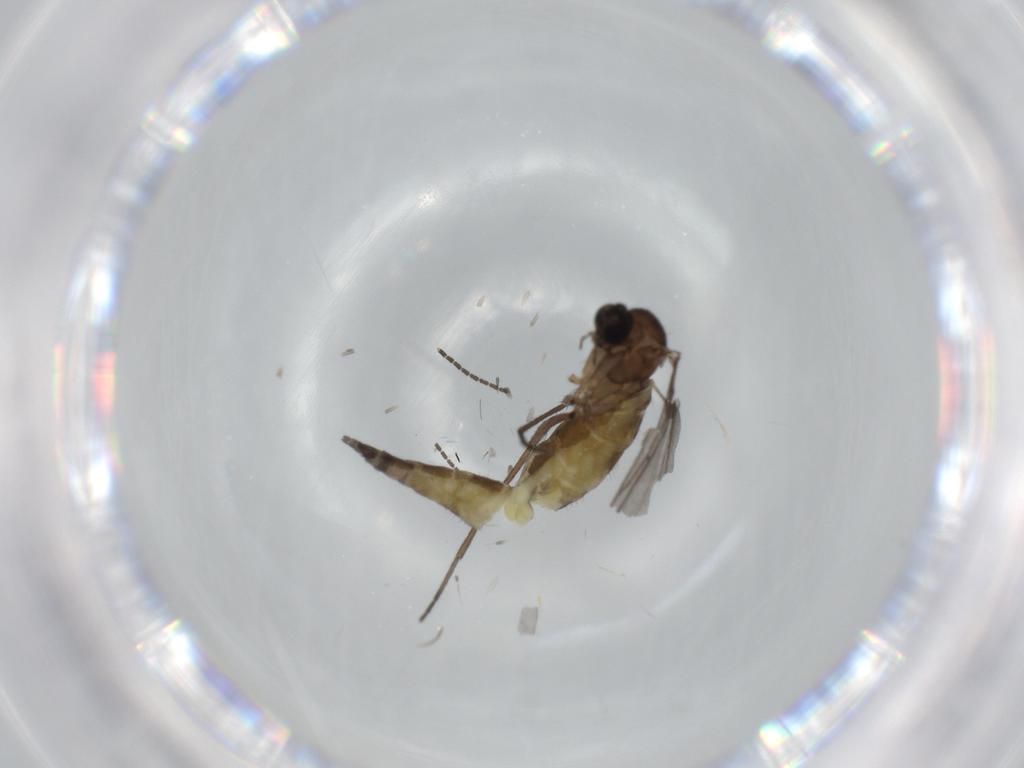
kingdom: Animalia
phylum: Arthropoda
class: Insecta
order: Diptera
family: Sciaridae
